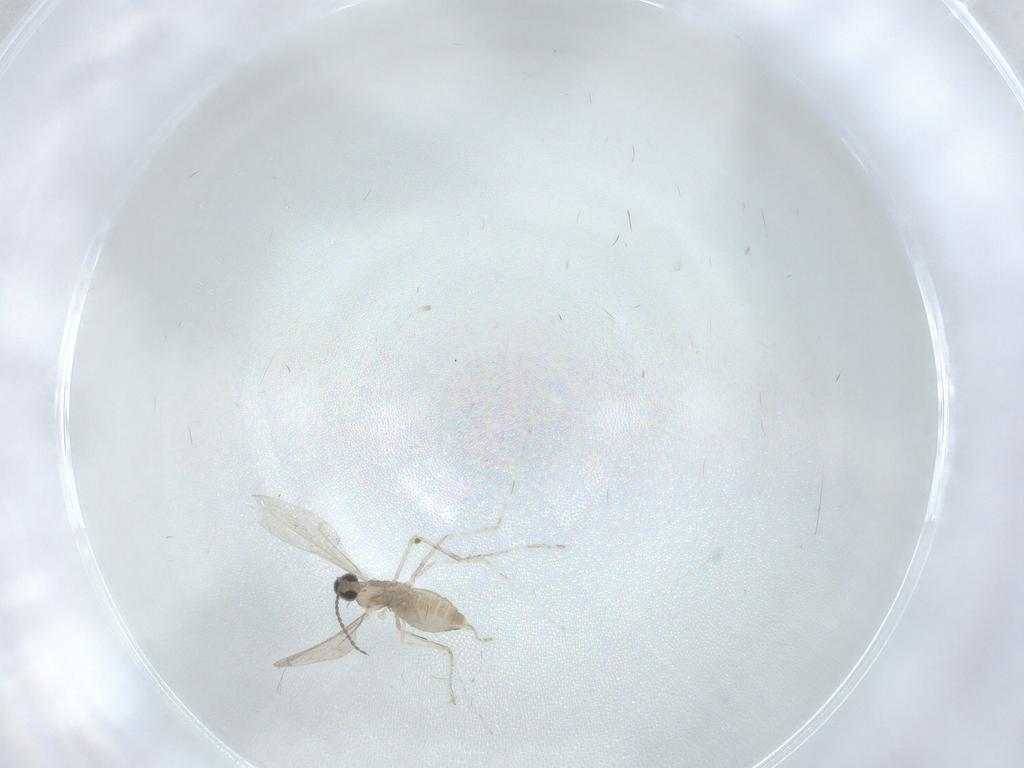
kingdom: Animalia
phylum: Arthropoda
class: Insecta
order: Diptera
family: Cecidomyiidae
